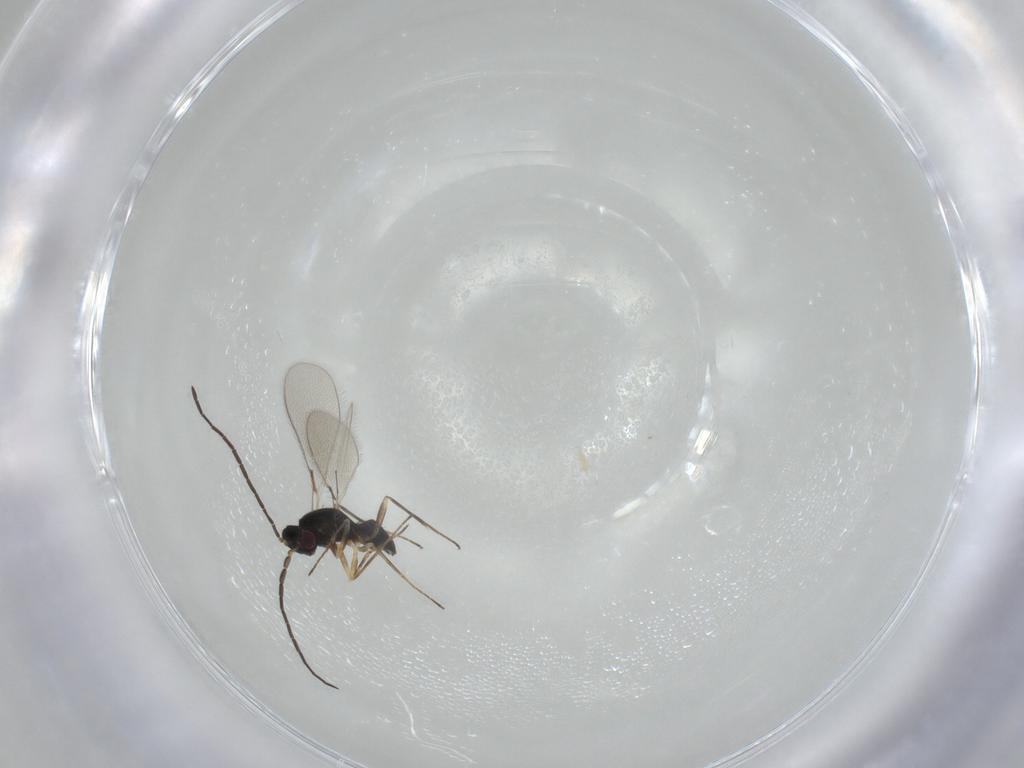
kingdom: Animalia
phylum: Arthropoda
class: Insecta
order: Hymenoptera
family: Mymaridae
